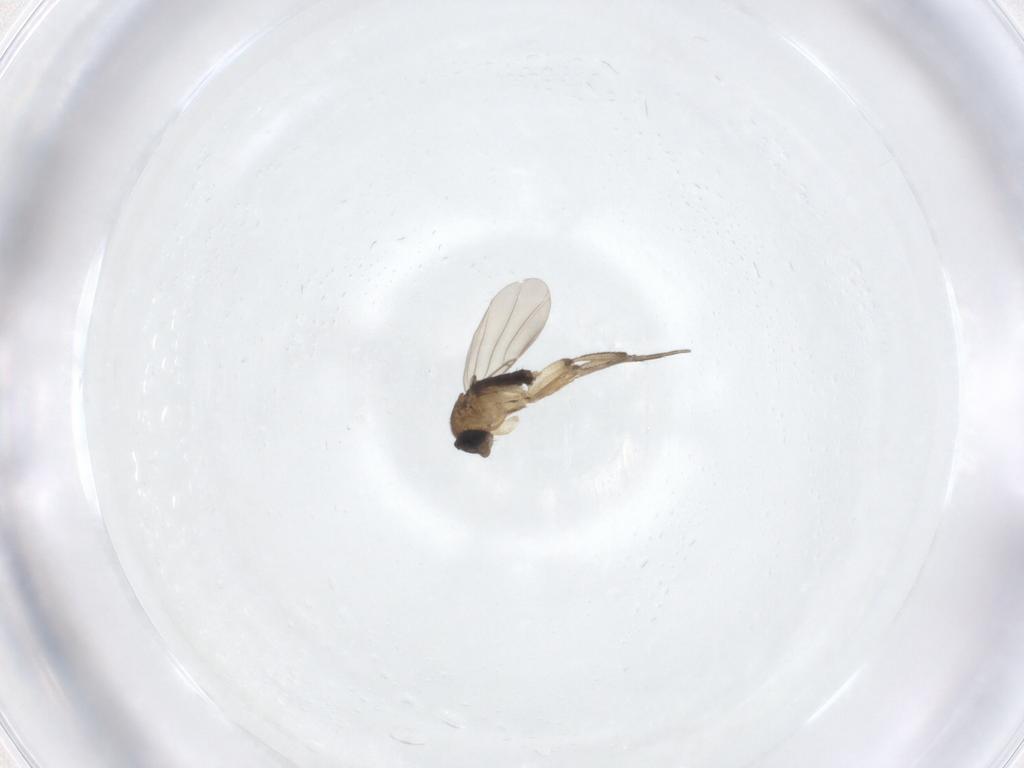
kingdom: Animalia
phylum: Arthropoda
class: Insecta
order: Diptera
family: Phoridae
